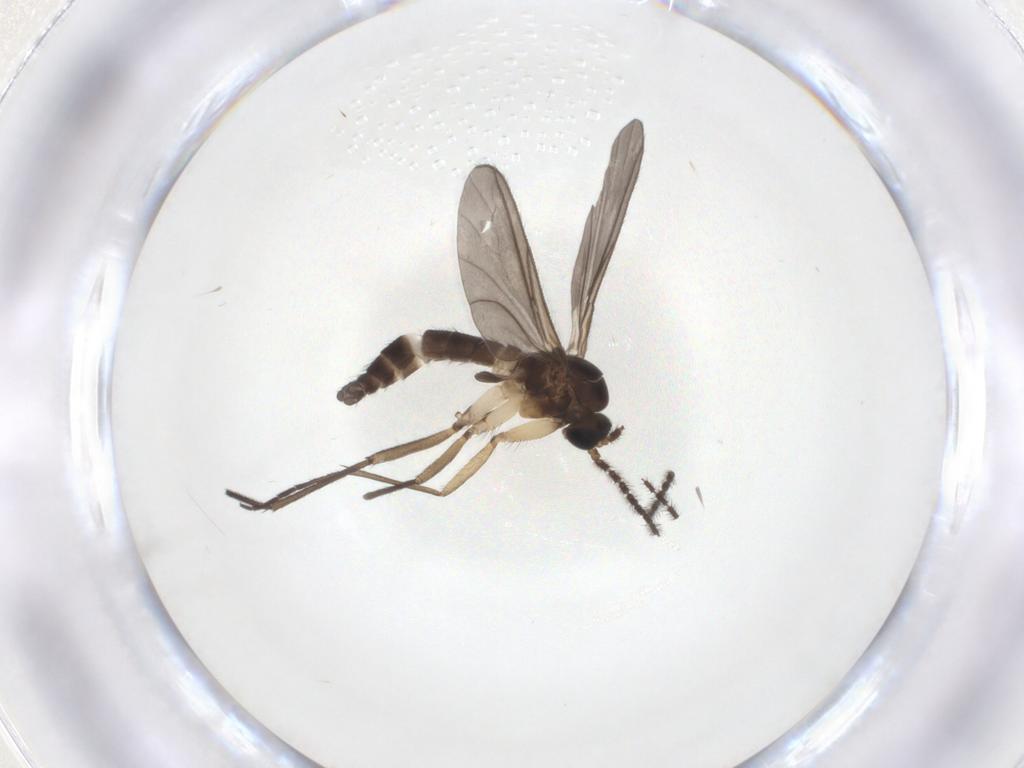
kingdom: Animalia
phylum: Arthropoda
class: Insecta
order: Diptera
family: Sciaridae
